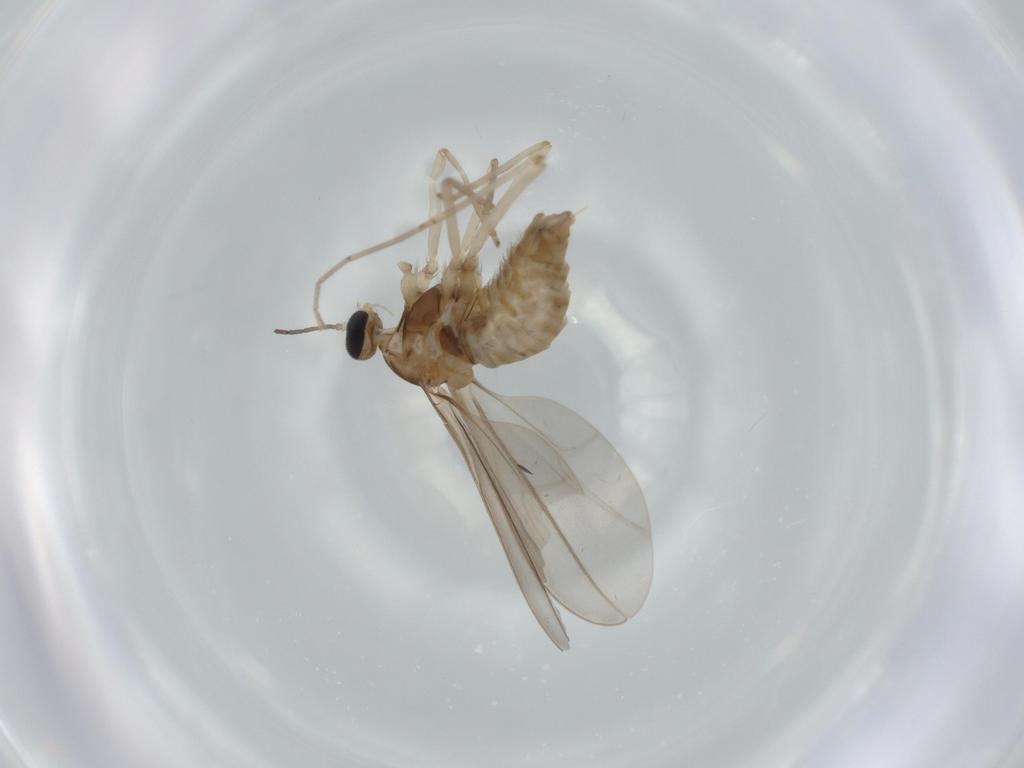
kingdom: Animalia
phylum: Arthropoda
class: Insecta
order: Diptera
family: Cecidomyiidae
